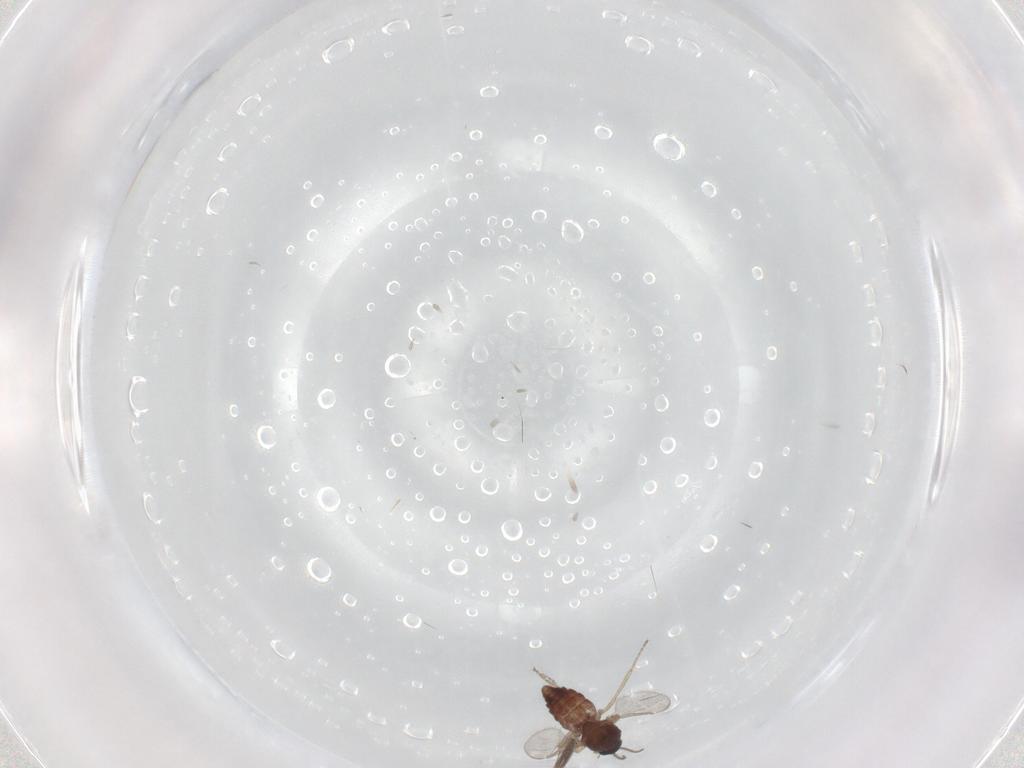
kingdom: Animalia
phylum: Arthropoda
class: Insecta
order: Diptera
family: Ceratopogonidae
